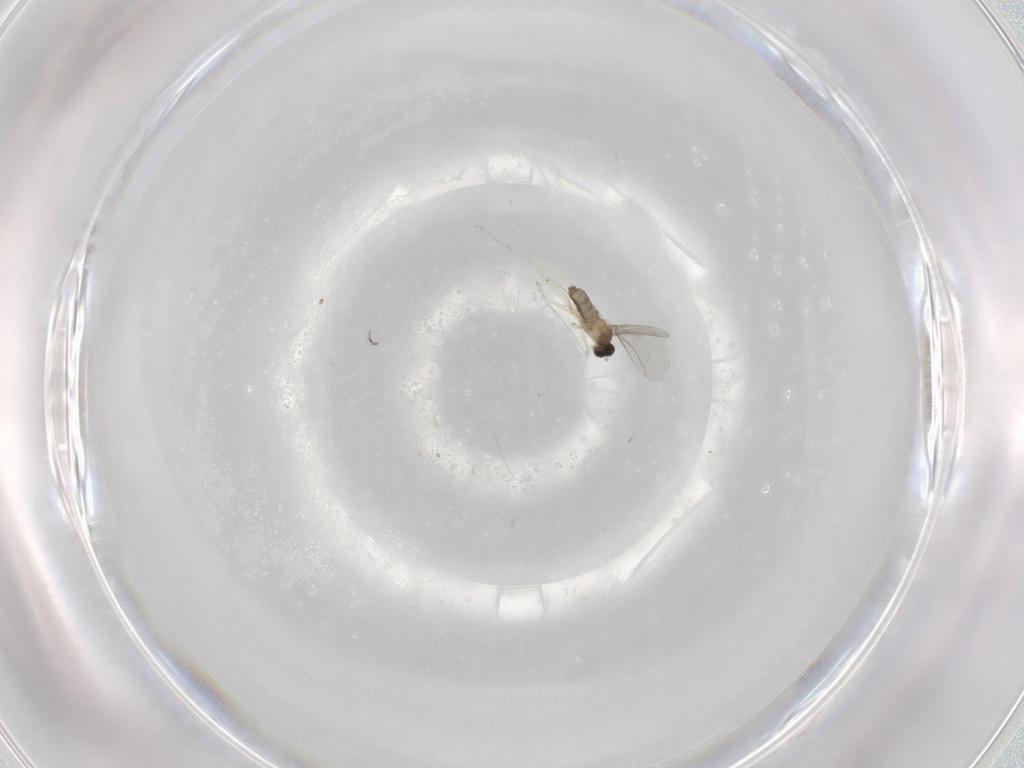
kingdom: Animalia
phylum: Arthropoda
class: Insecta
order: Diptera
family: Cecidomyiidae
